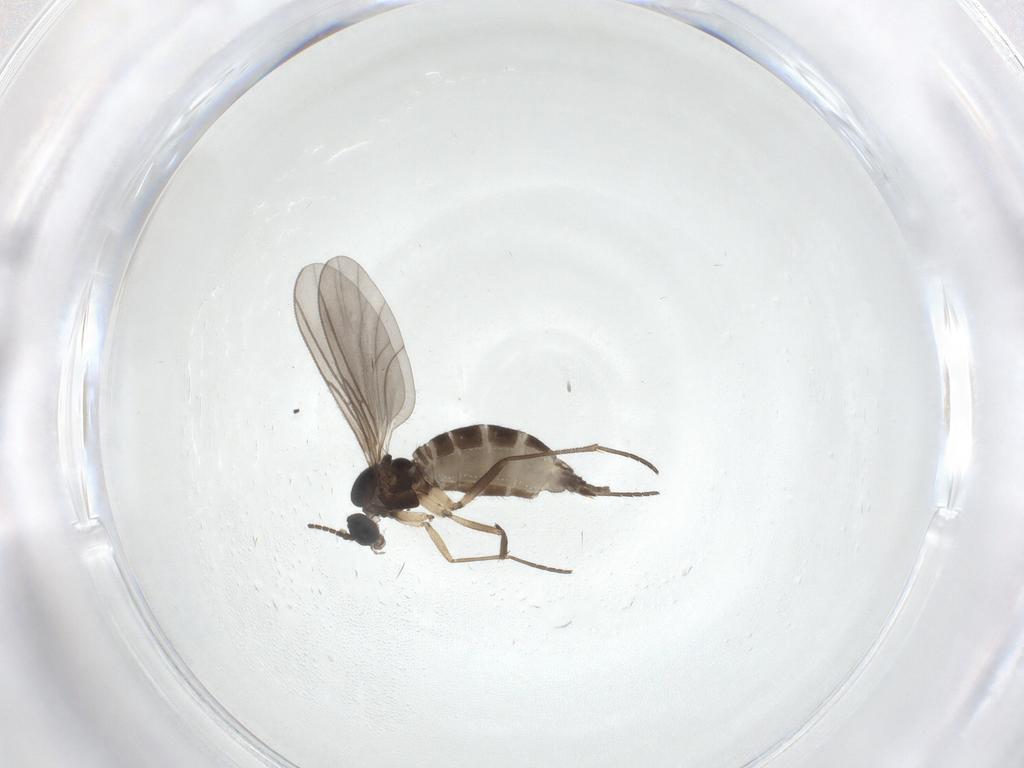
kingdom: Animalia
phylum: Arthropoda
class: Insecta
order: Diptera
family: Sciaridae
